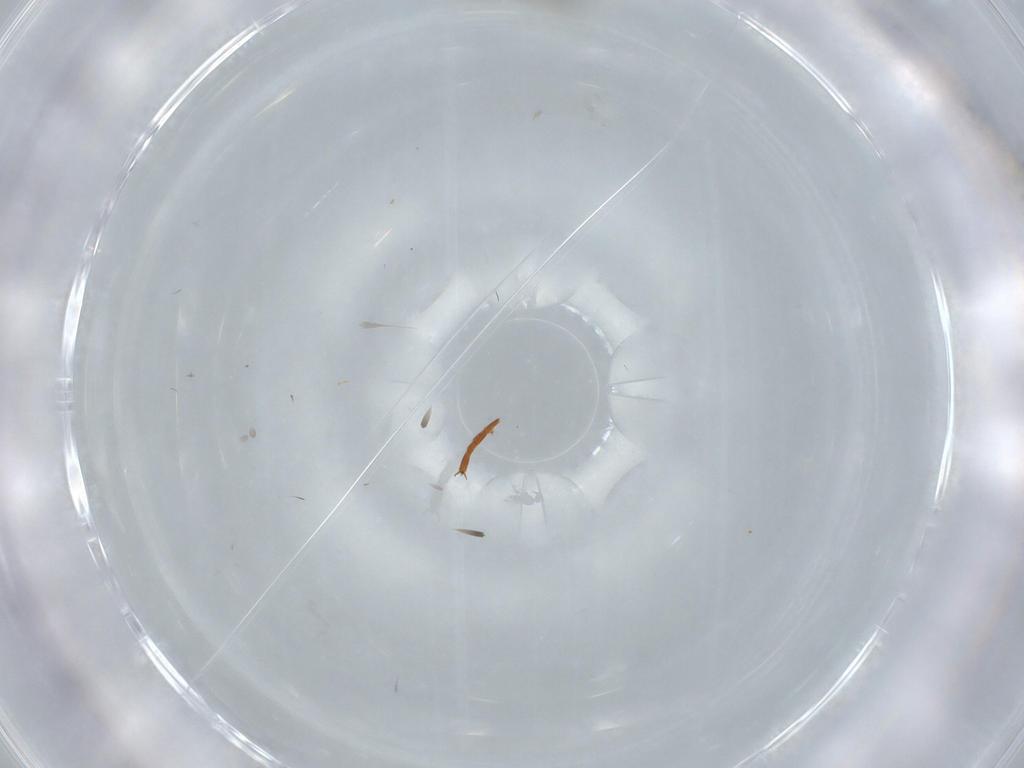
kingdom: Animalia
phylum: Arthropoda
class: Insecta
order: Hymenoptera
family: Evaniidae
